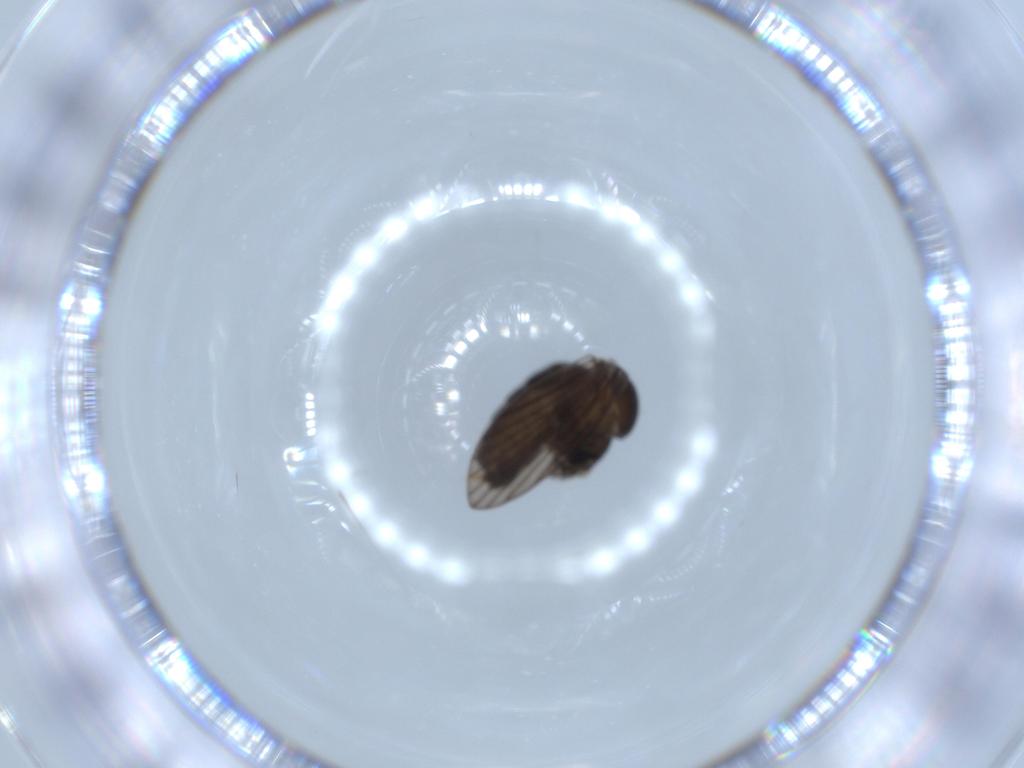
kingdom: Animalia
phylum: Arthropoda
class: Insecta
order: Diptera
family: Psychodidae
